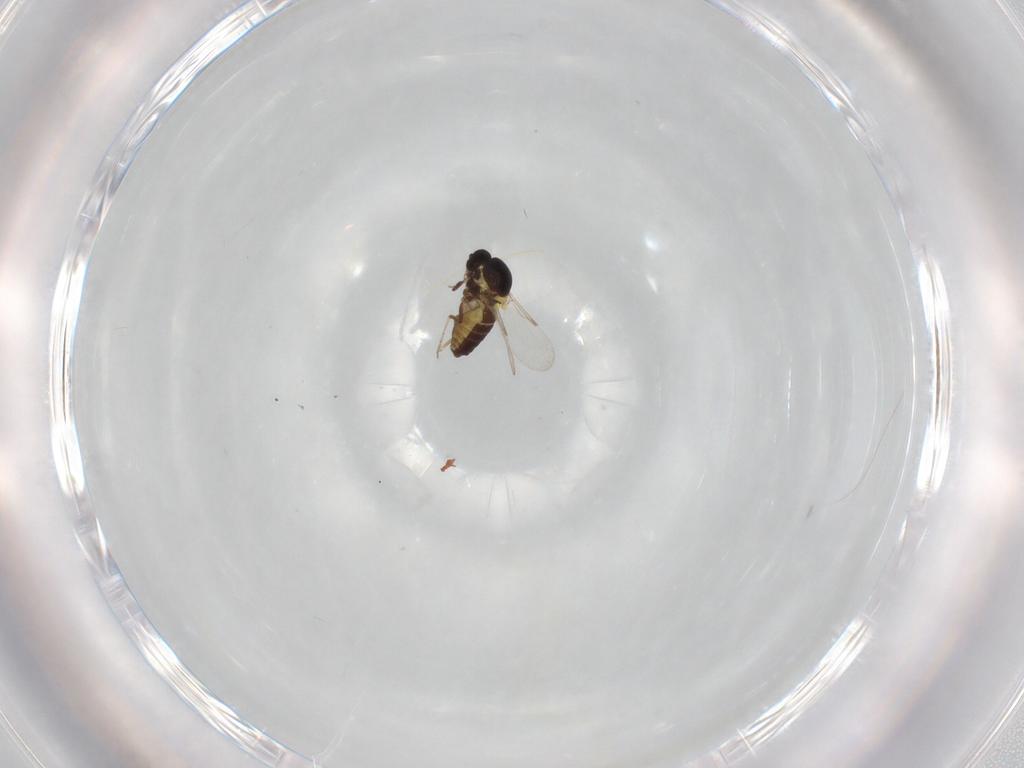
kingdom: Animalia
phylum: Arthropoda
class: Insecta
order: Diptera
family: Ceratopogonidae
